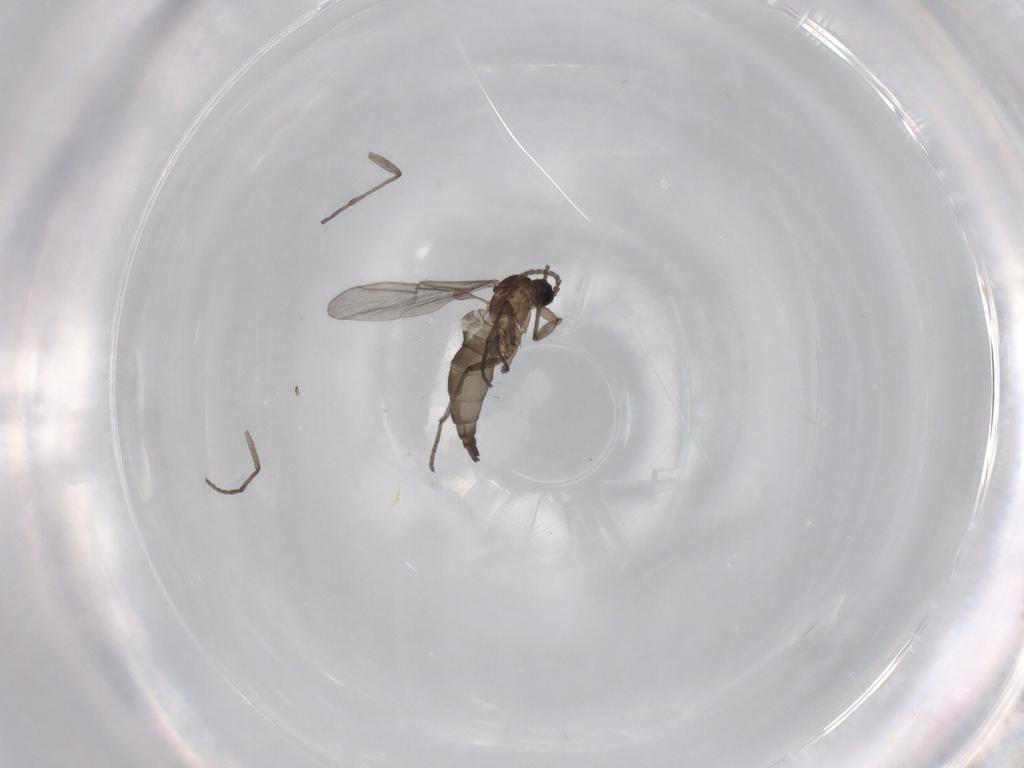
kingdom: Animalia
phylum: Arthropoda
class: Insecta
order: Diptera
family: Sciaridae
